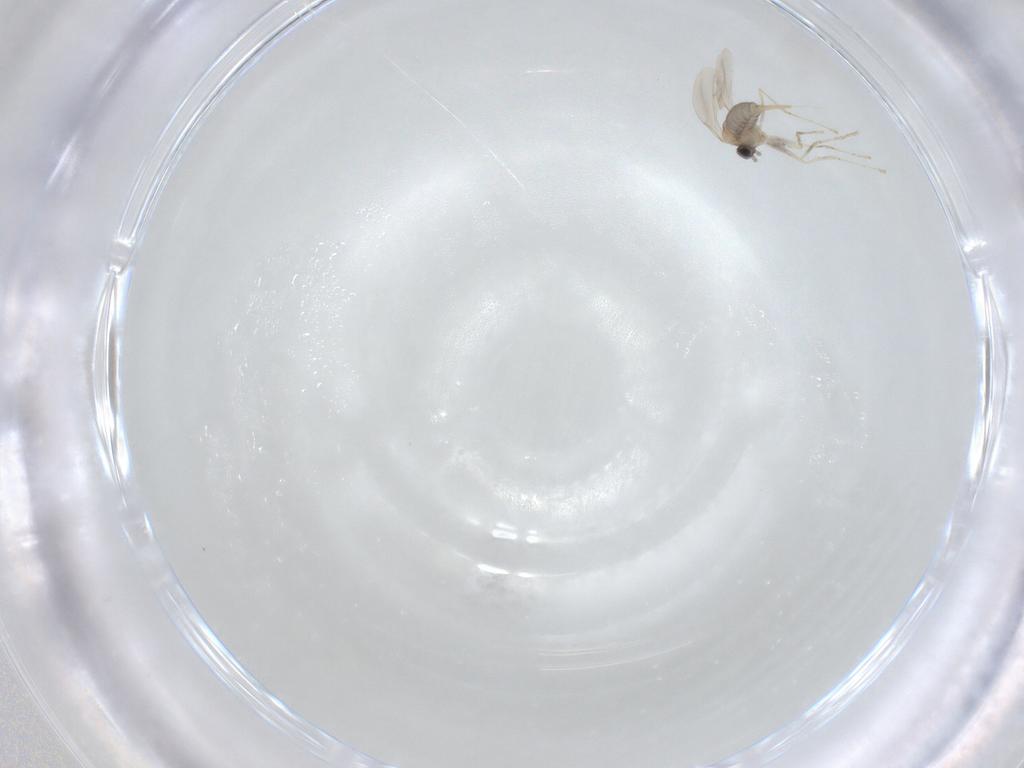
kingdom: Animalia
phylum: Arthropoda
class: Insecta
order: Diptera
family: Cecidomyiidae
